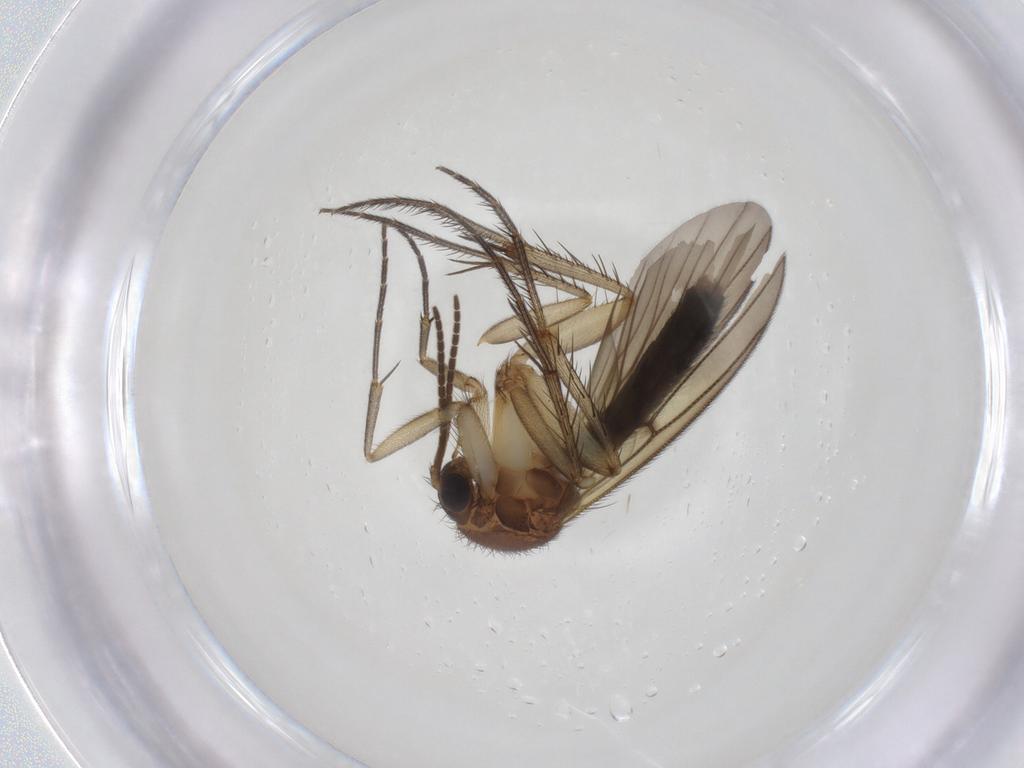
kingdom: Animalia
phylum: Arthropoda
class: Insecta
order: Diptera
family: Mycetophilidae
